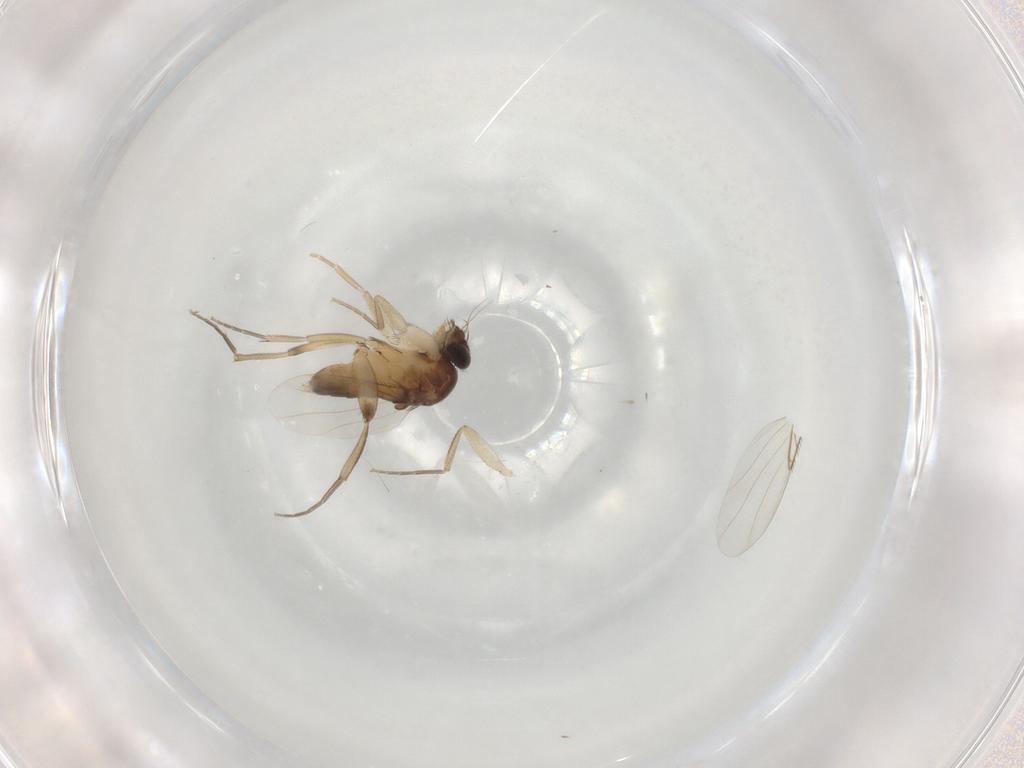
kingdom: Animalia
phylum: Arthropoda
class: Insecta
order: Diptera
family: Phoridae
